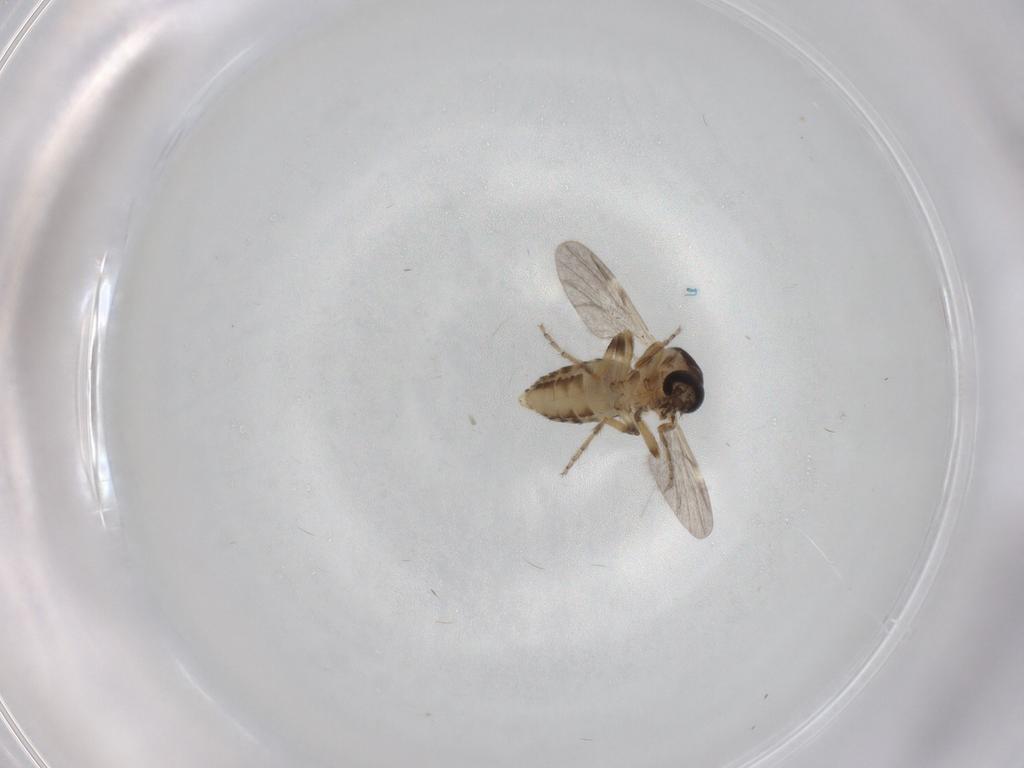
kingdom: Animalia
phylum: Arthropoda
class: Insecta
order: Diptera
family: Ceratopogonidae
